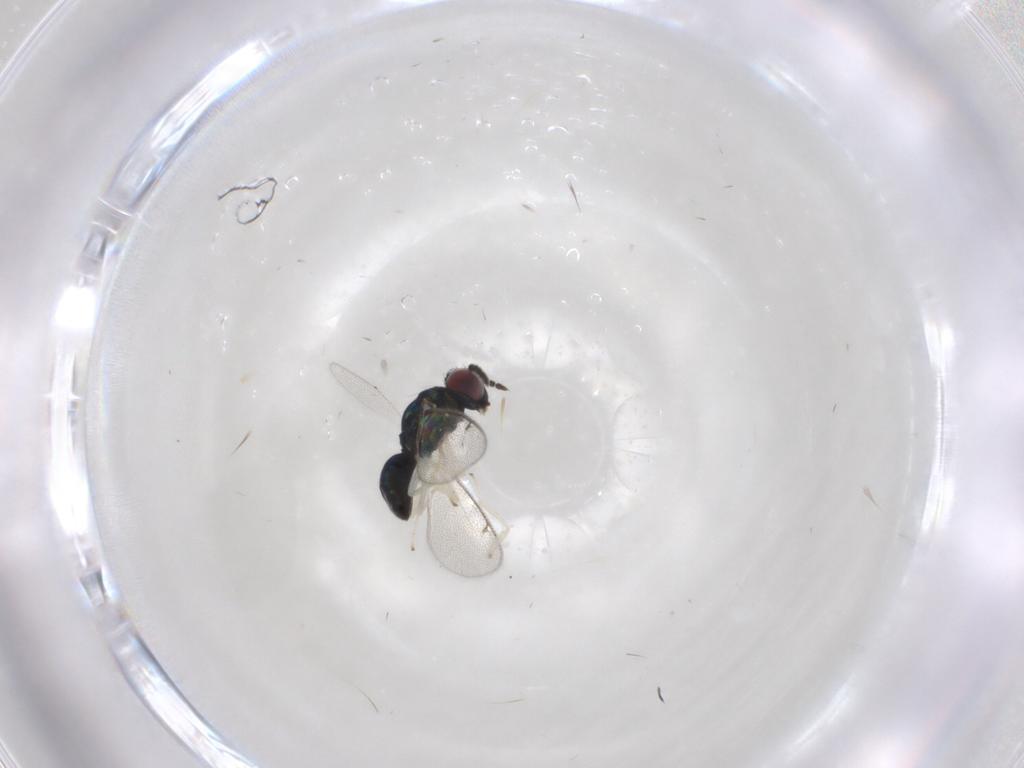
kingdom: Animalia
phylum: Arthropoda
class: Insecta
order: Hymenoptera
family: Eulophidae
